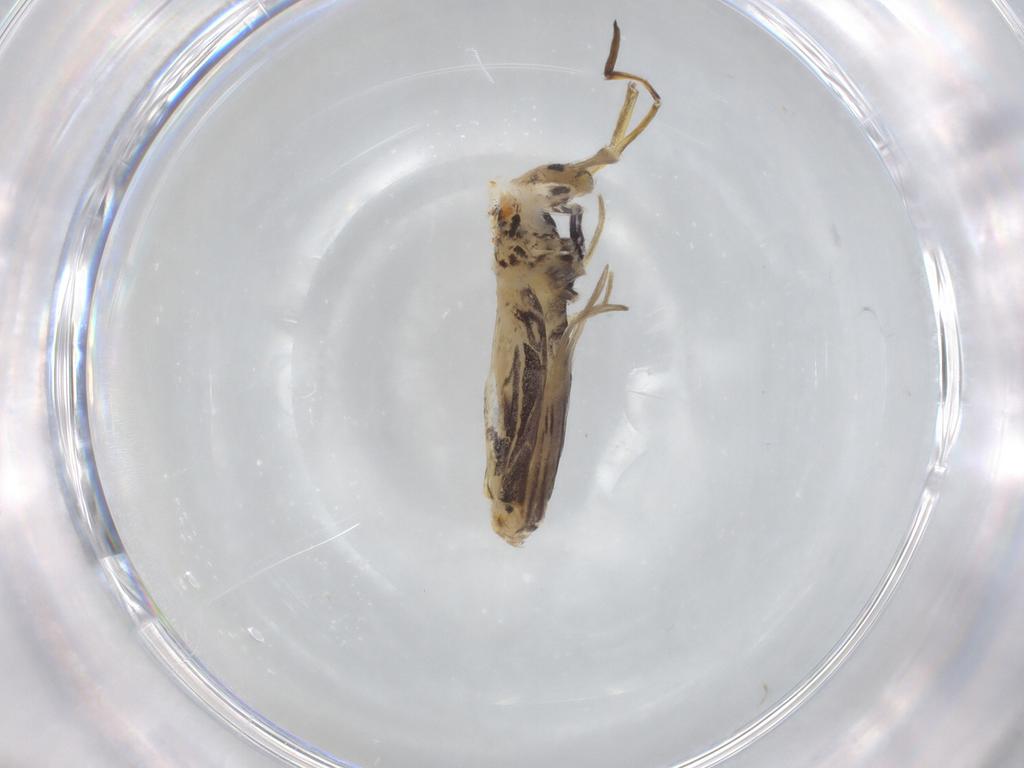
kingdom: Animalia
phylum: Arthropoda
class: Collembola
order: Entomobryomorpha
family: Entomobryidae
